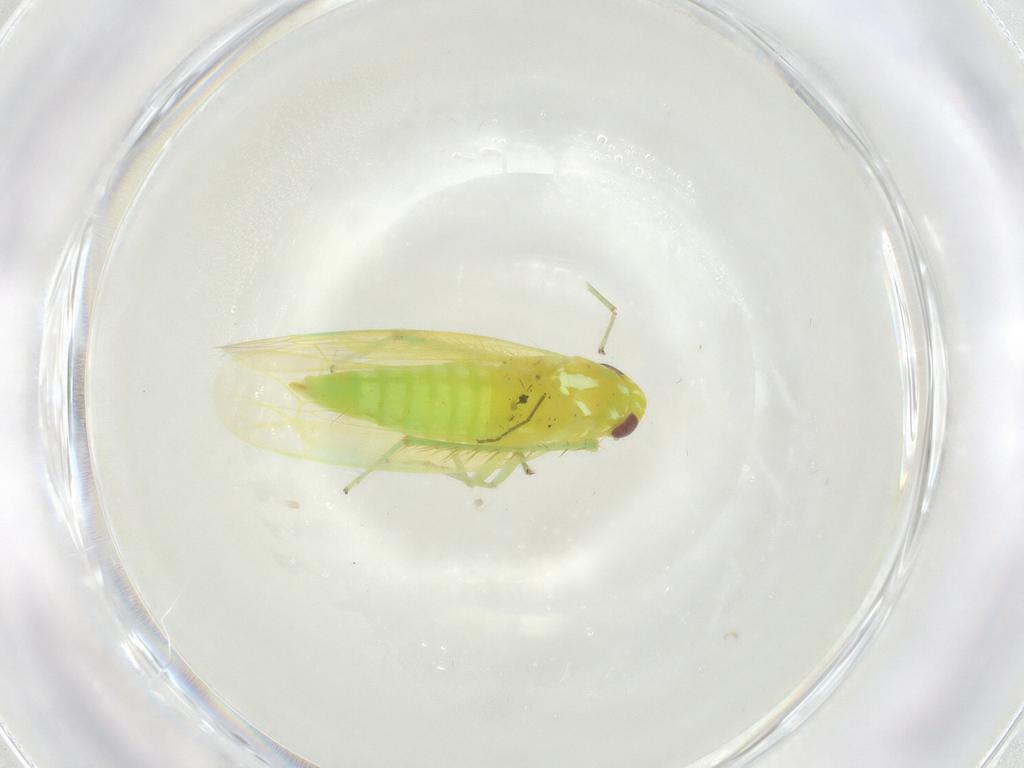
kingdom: Animalia
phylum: Arthropoda
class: Insecta
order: Hemiptera
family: Cicadellidae
